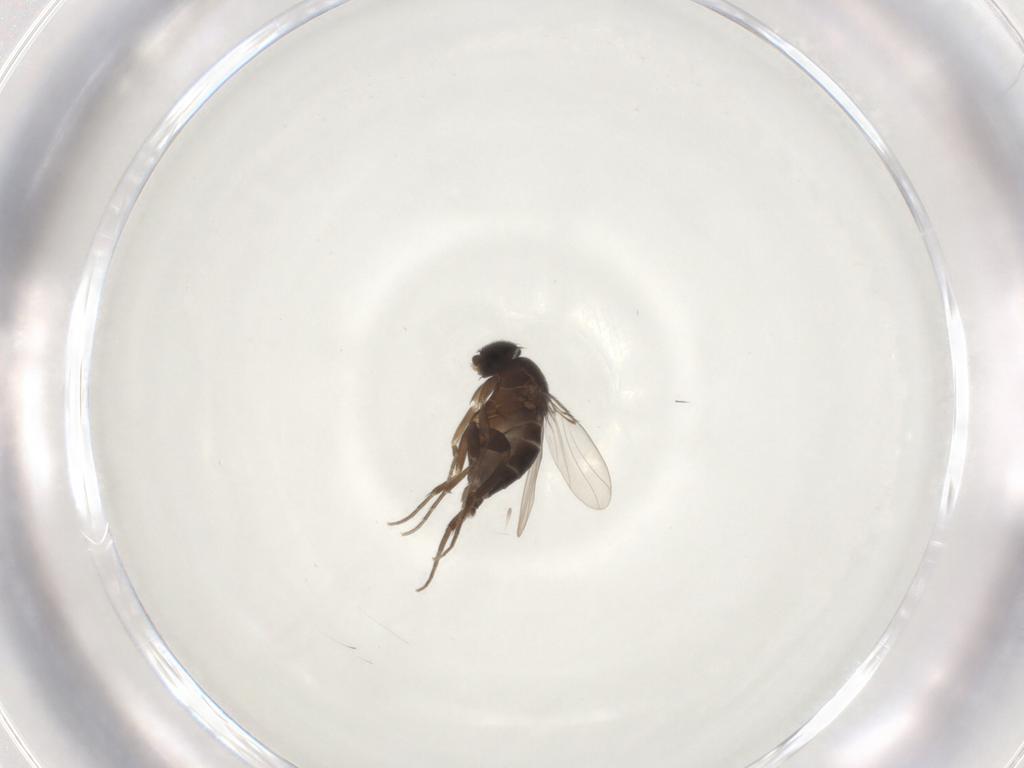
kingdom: Animalia
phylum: Arthropoda
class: Insecta
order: Diptera
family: Phoridae
